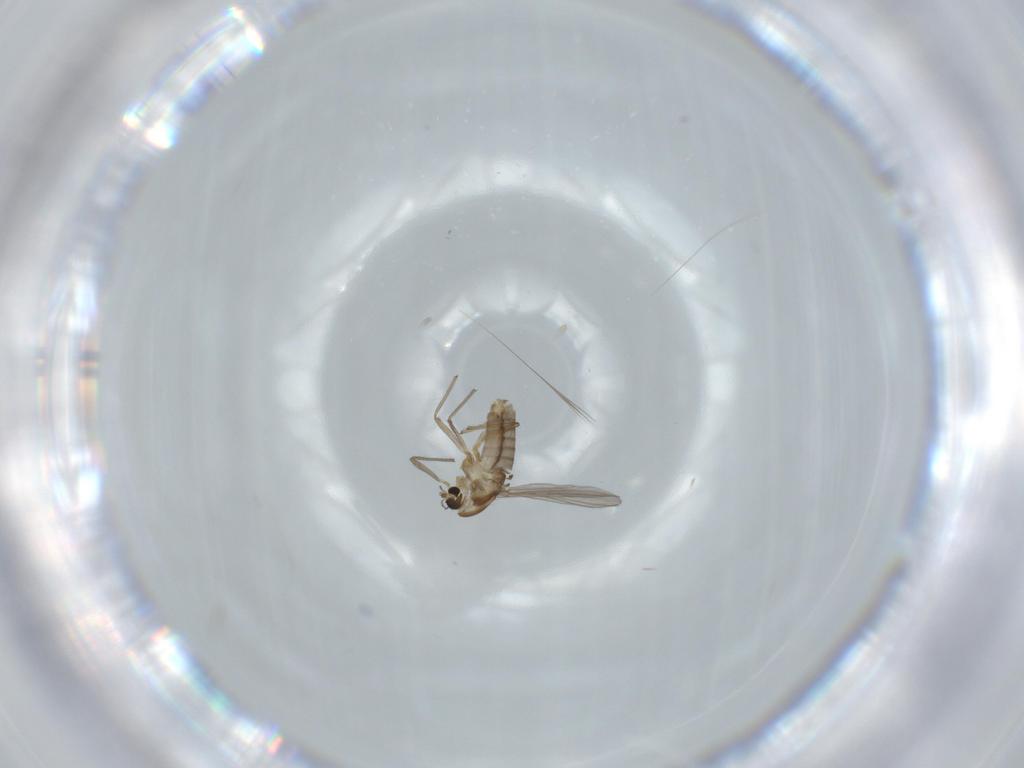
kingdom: Animalia
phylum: Arthropoda
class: Insecta
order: Diptera
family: Chironomidae
